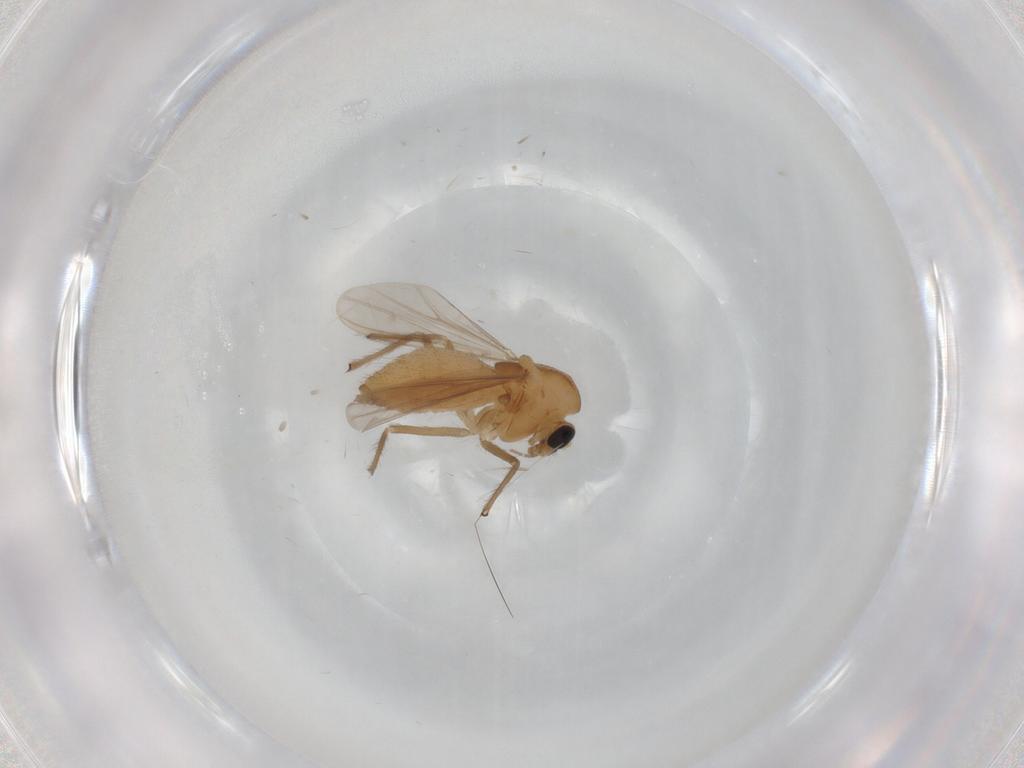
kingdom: Animalia
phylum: Arthropoda
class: Insecta
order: Diptera
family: Chironomidae
